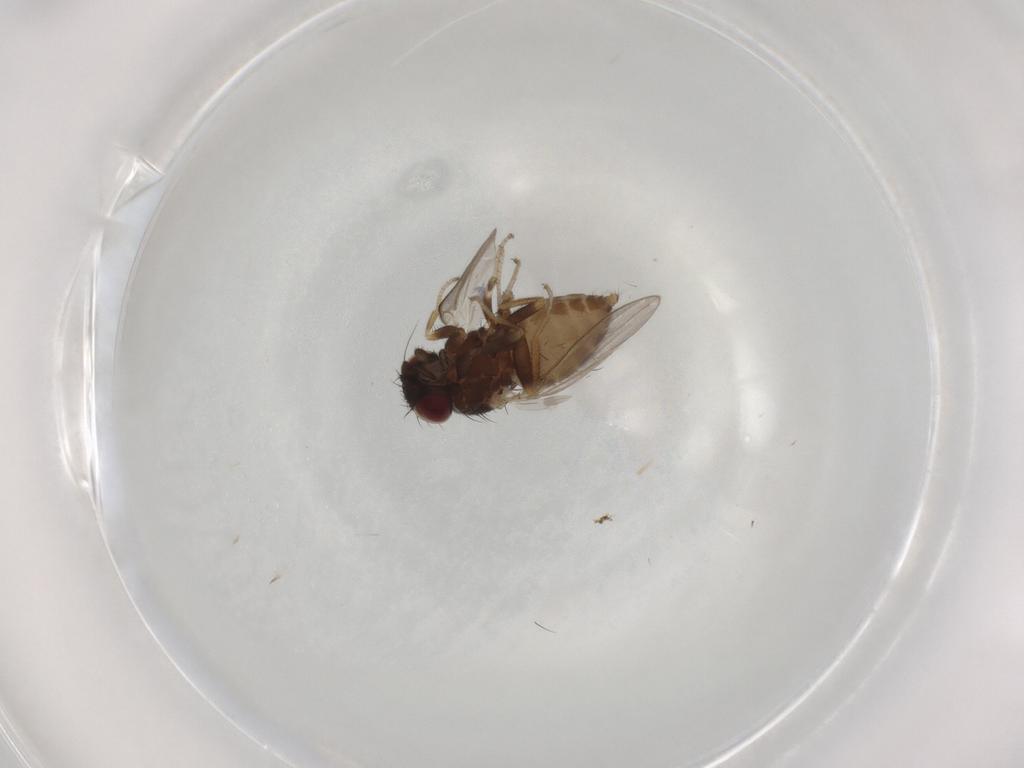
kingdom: Animalia
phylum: Arthropoda
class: Insecta
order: Diptera
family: Milichiidae
